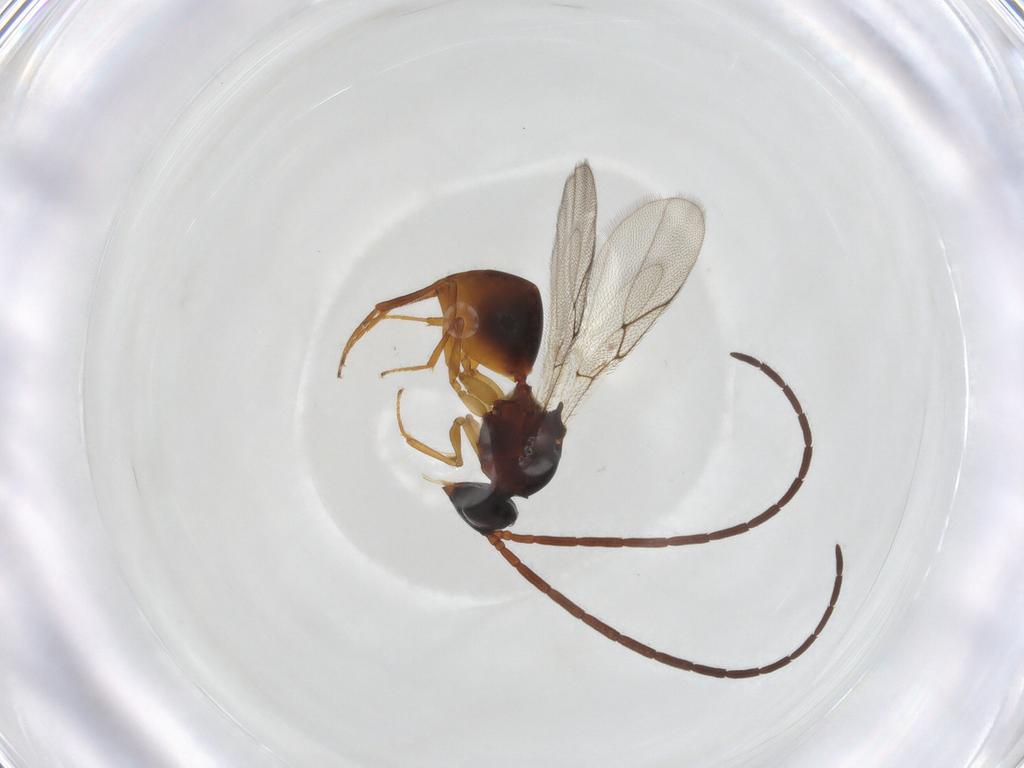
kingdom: Animalia
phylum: Arthropoda
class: Insecta
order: Hymenoptera
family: Figitidae
